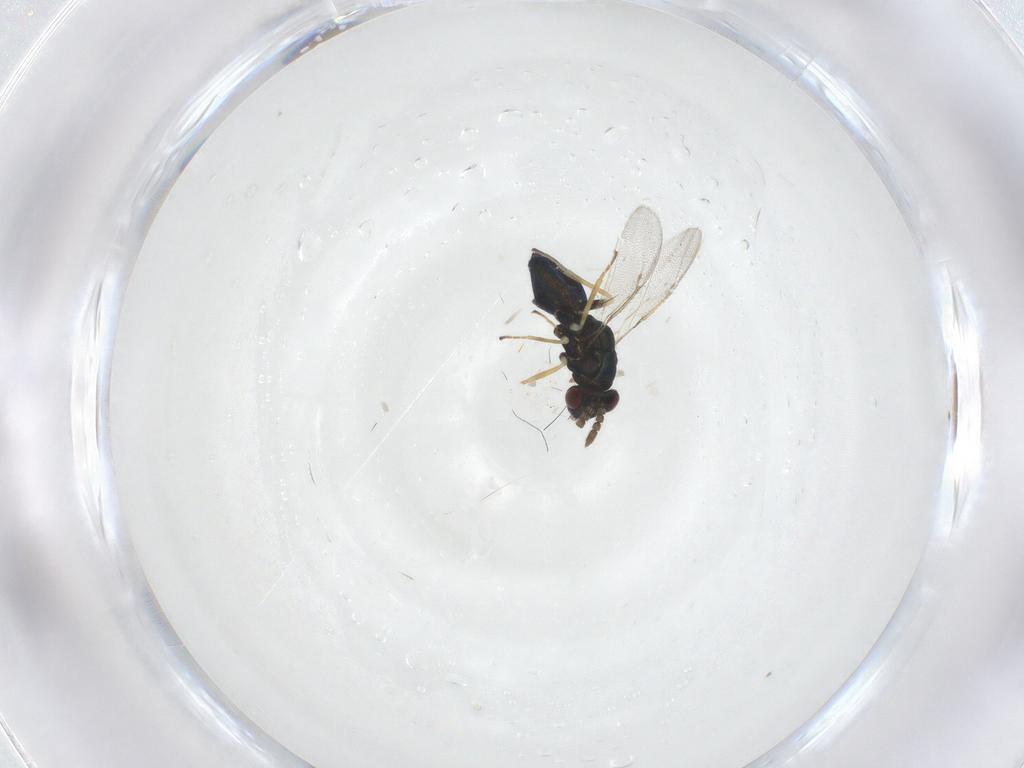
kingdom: Animalia
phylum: Arthropoda
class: Insecta
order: Hymenoptera
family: Eulophidae
